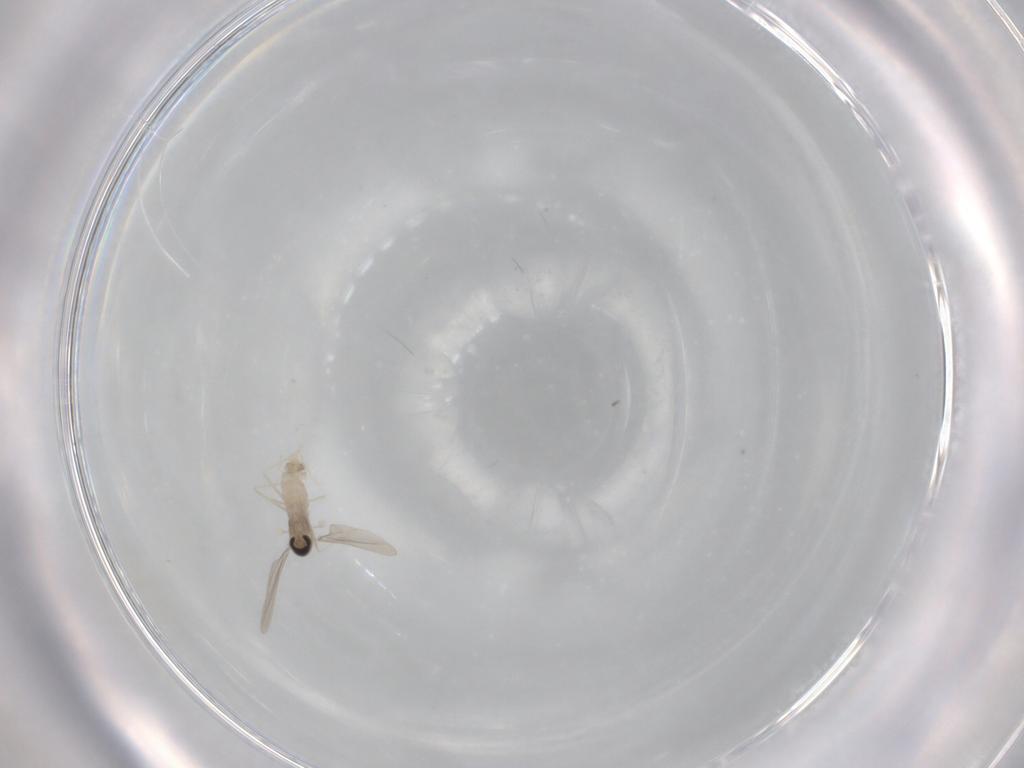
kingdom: Animalia
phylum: Arthropoda
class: Insecta
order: Diptera
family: Cecidomyiidae
